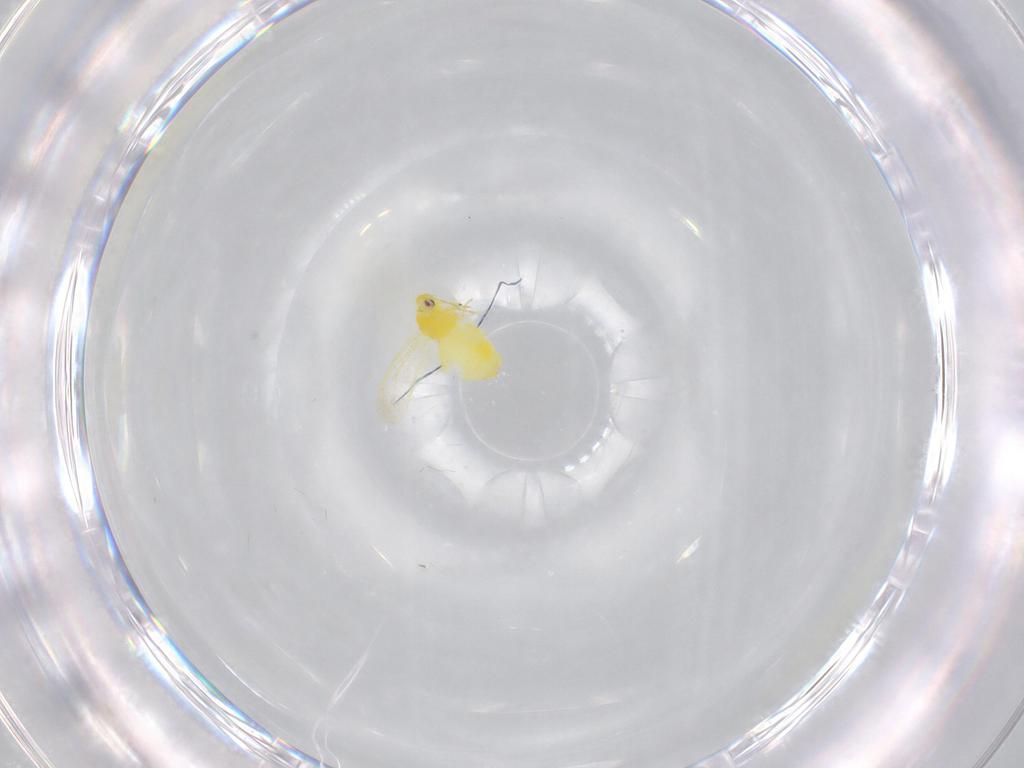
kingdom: Animalia
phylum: Arthropoda
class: Insecta
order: Hemiptera
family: Aleyrodidae
